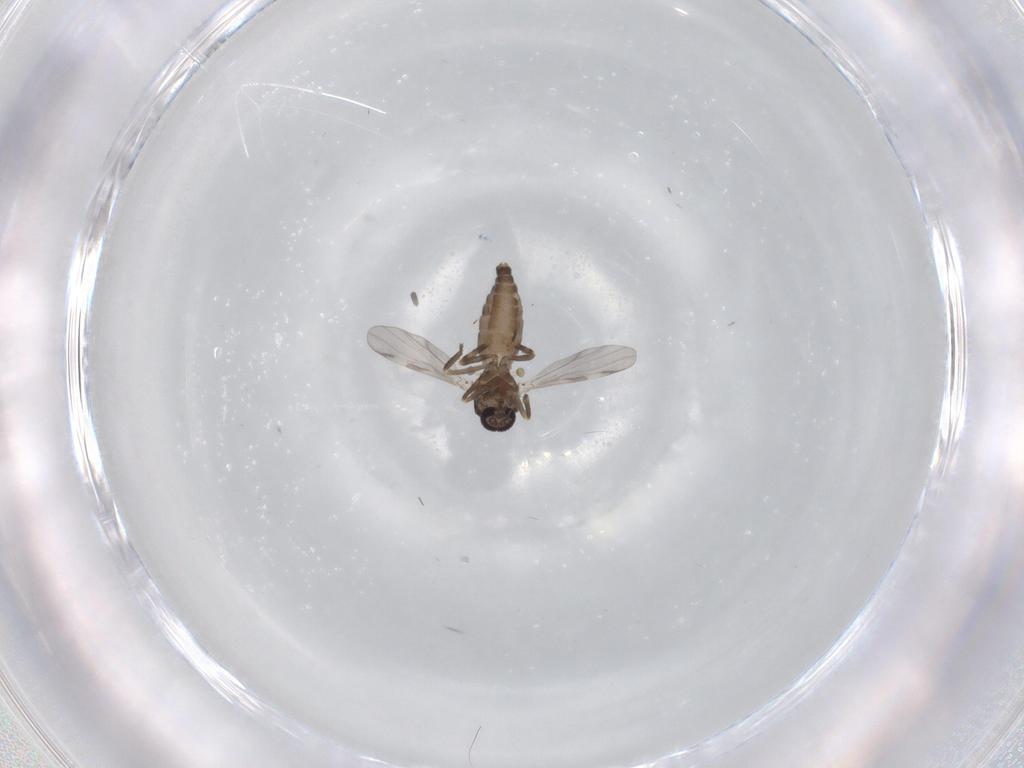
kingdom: Animalia
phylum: Arthropoda
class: Insecta
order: Diptera
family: Ceratopogonidae
